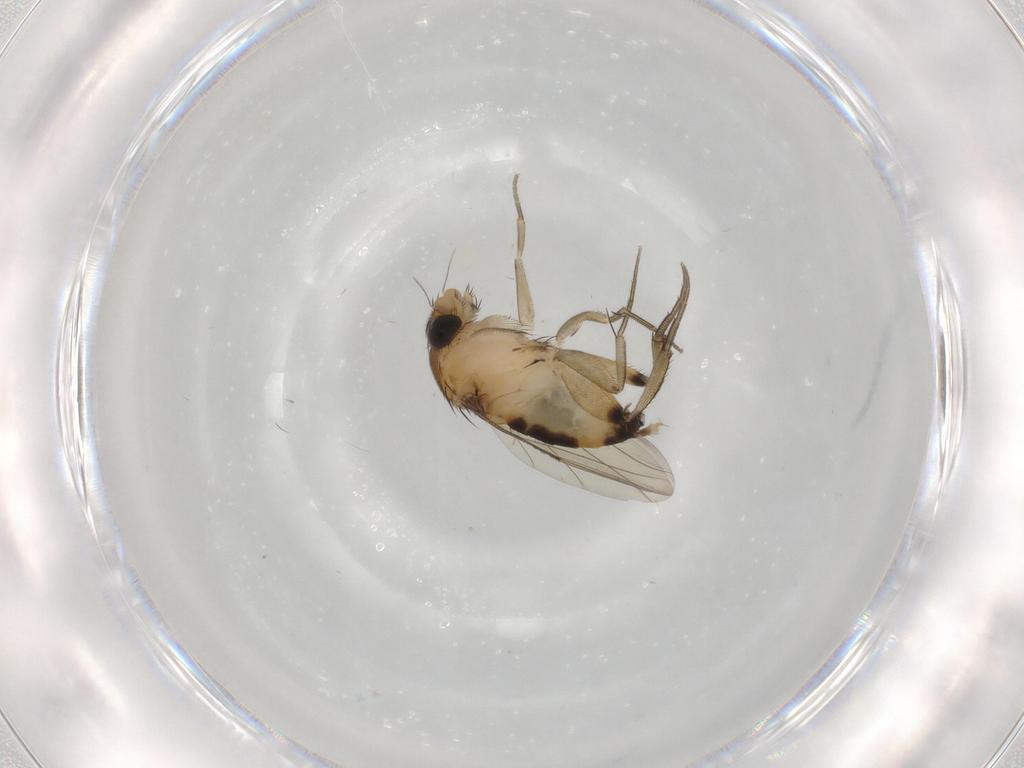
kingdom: Animalia
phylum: Arthropoda
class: Insecta
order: Diptera
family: Phoridae
